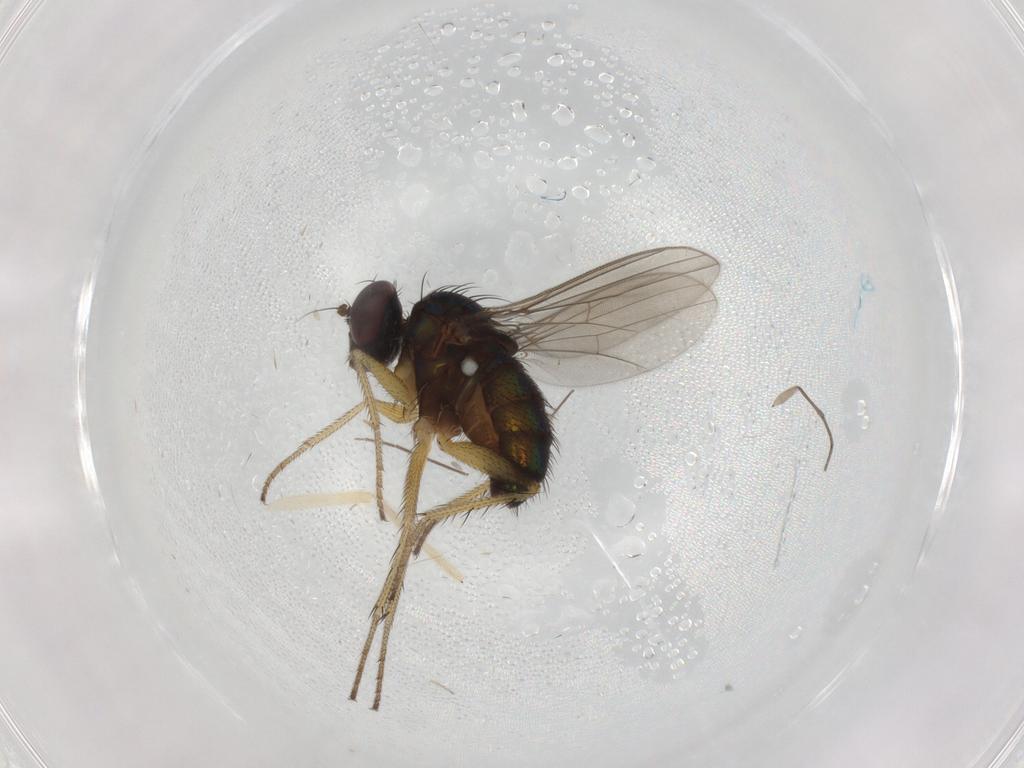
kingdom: Animalia
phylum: Arthropoda
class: Insecta
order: Diptera
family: Dolichopodidae
